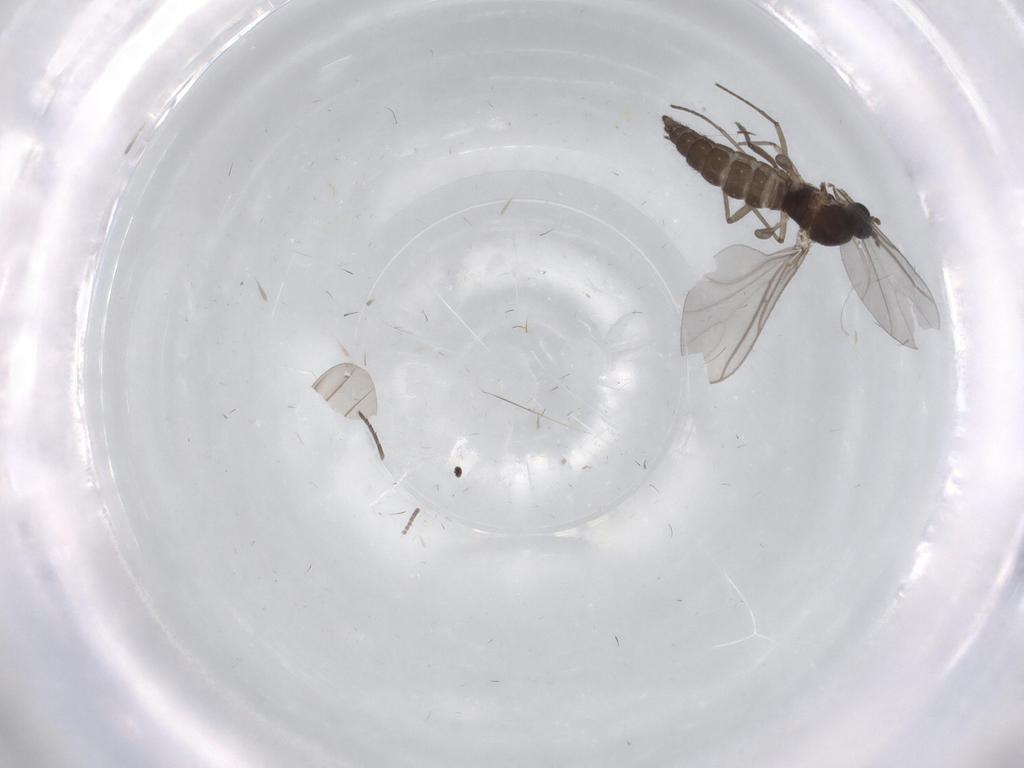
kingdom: Animalia
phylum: Arthropoda
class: Insecta
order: Diptera
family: Cecidomyiidae
